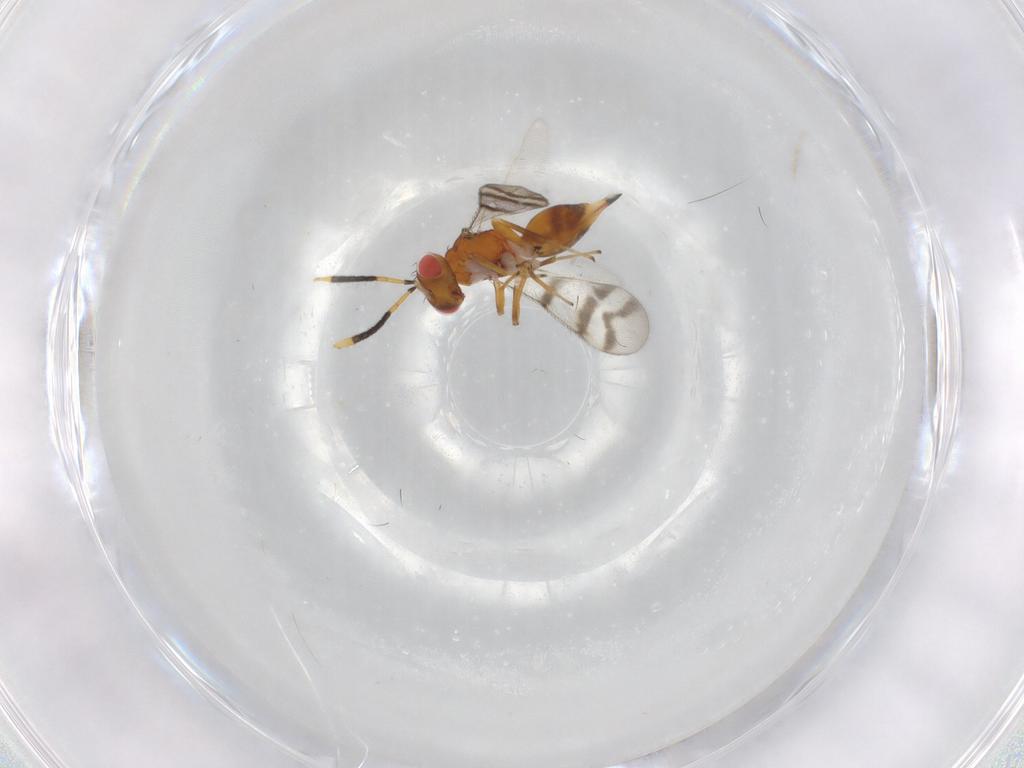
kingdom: Animalia
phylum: Arthropoda
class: Insecta
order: Hymenoptera
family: Diparidae
